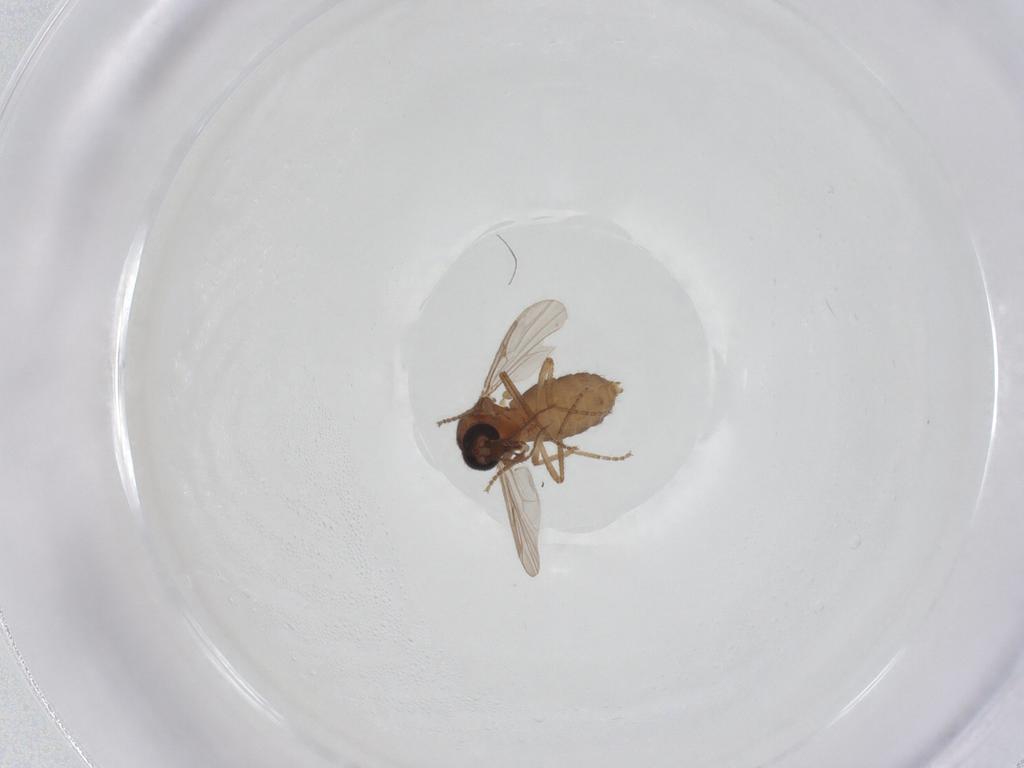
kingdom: Animalia
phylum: Arthropoda
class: Insecta
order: Diptera
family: Ceratopogonidae
